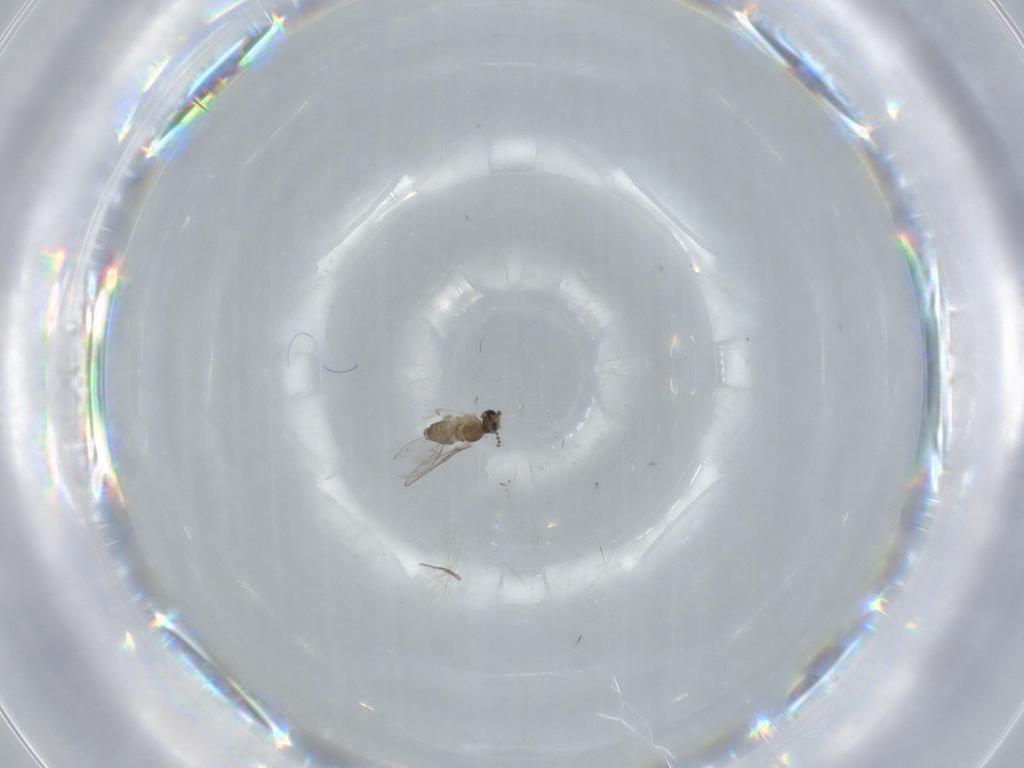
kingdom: Animalia
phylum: Arthropoda
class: Insecta
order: Diptera
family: Cecidomyiidae
